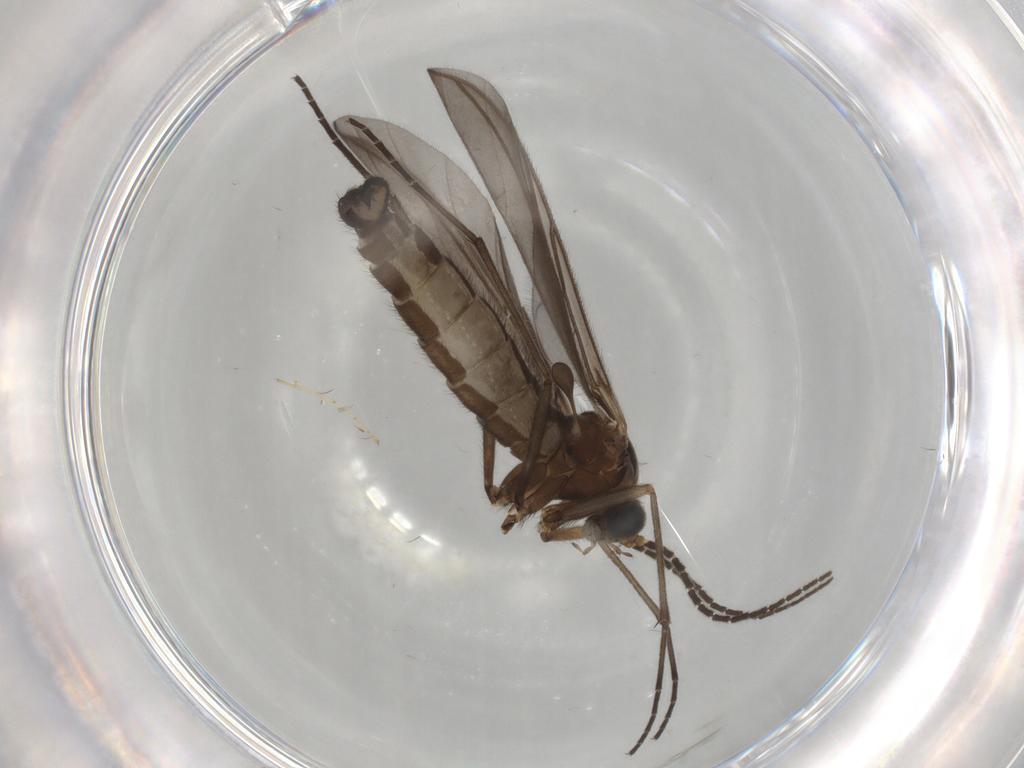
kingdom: Animalia
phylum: Arthropoda
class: Insecta
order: Diptera
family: Sciaridae
